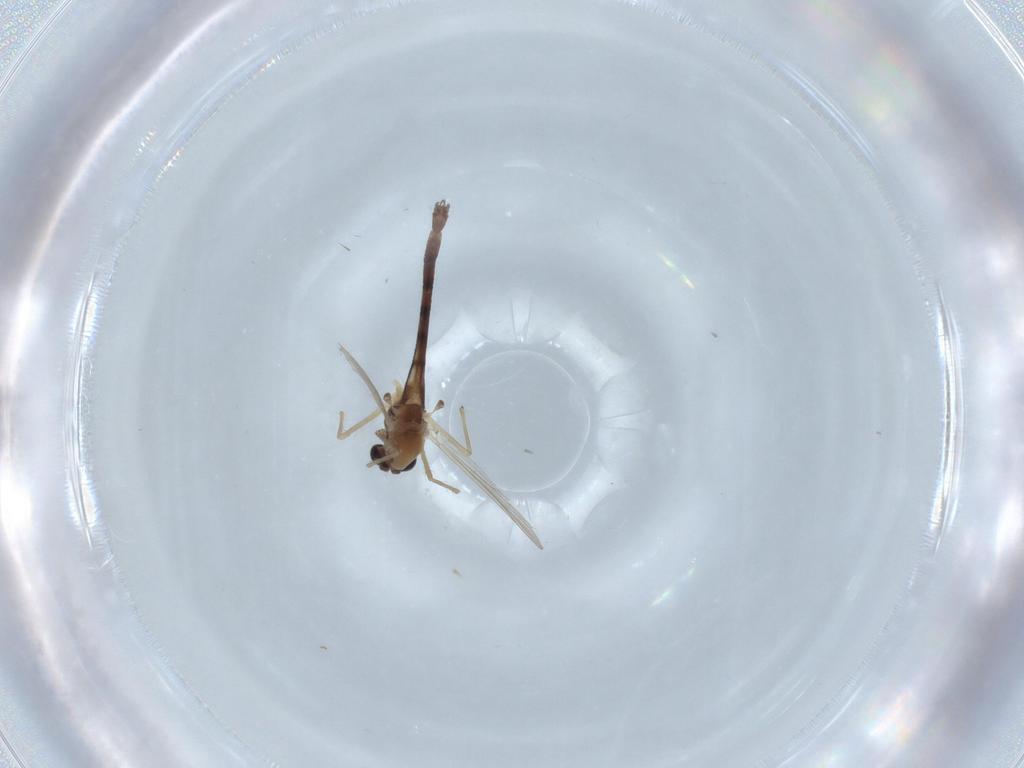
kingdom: Animalia
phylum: Arthropoda
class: Insecta
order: Diptera
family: Chironomidae
